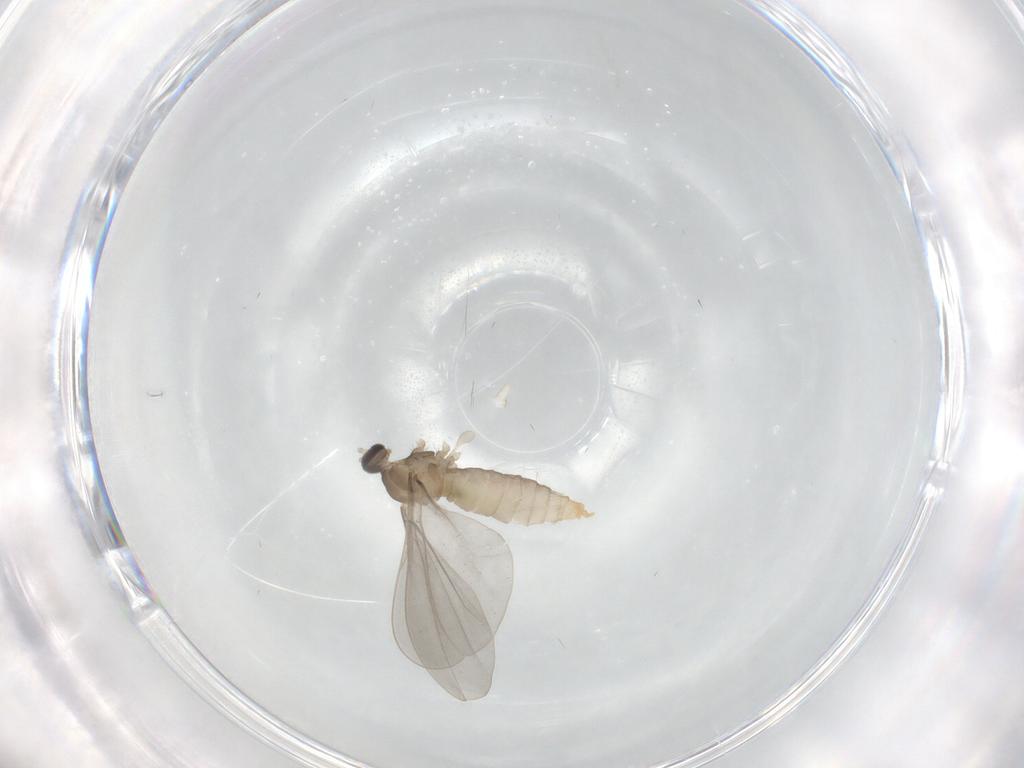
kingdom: Animalia
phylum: Arthropoda
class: Insecta
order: Diptera
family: Cecidomyiidae
